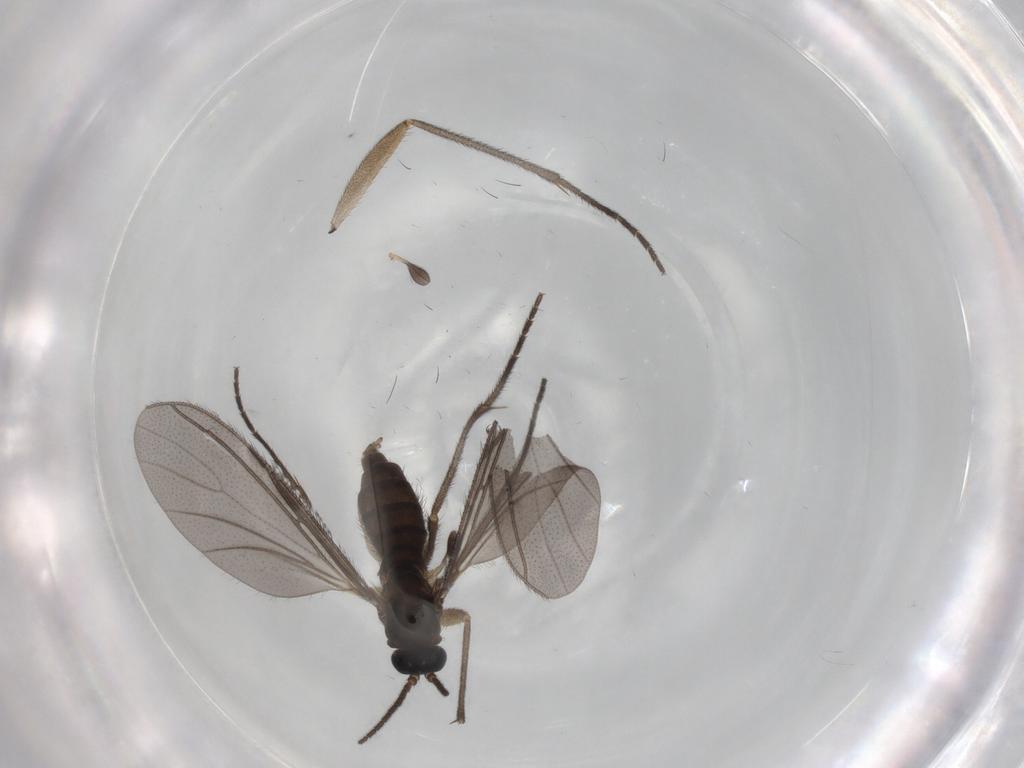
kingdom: Animalia
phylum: Arthropoda
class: Insecta
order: Diptera
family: Sciaridae
